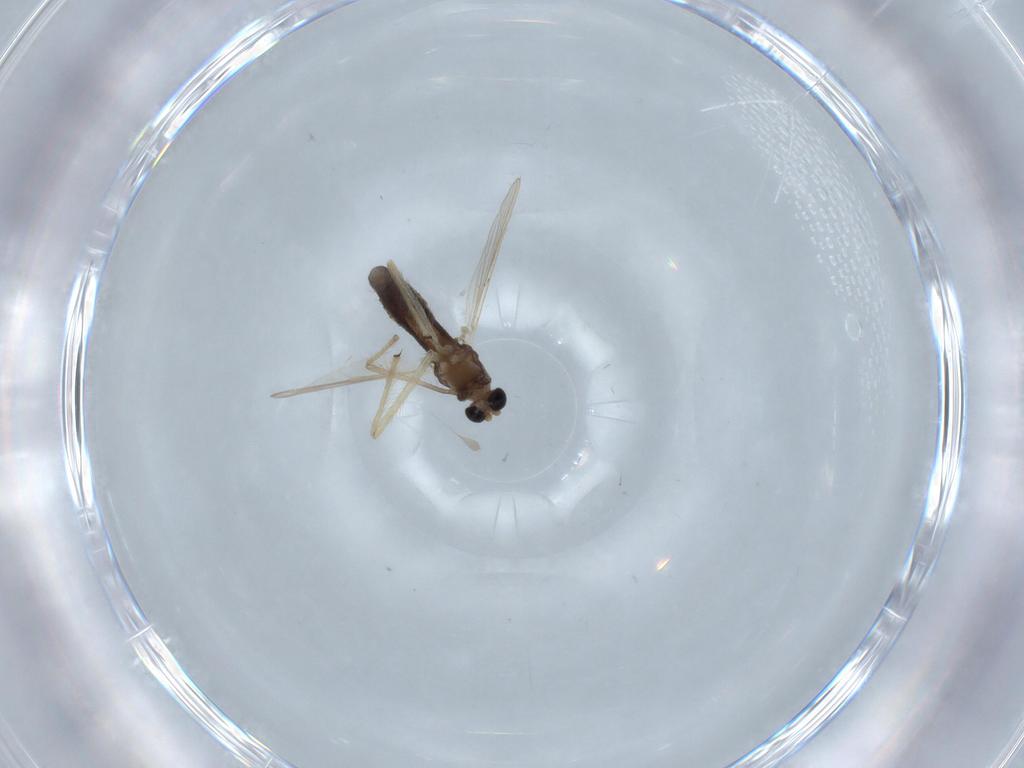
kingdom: Animalia
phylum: Arthropoda
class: Insecta
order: Diptera
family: Chironomidae
